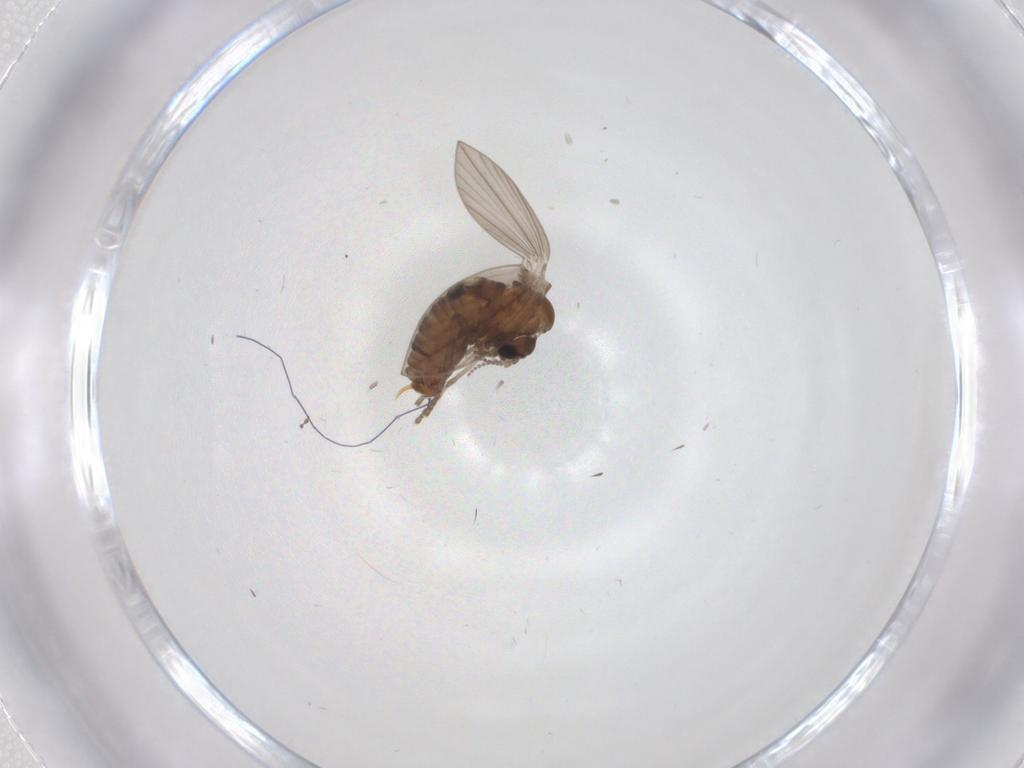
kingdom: Animalia
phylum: Arthropoda
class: Insecta
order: Diptera
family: Psychodidae
